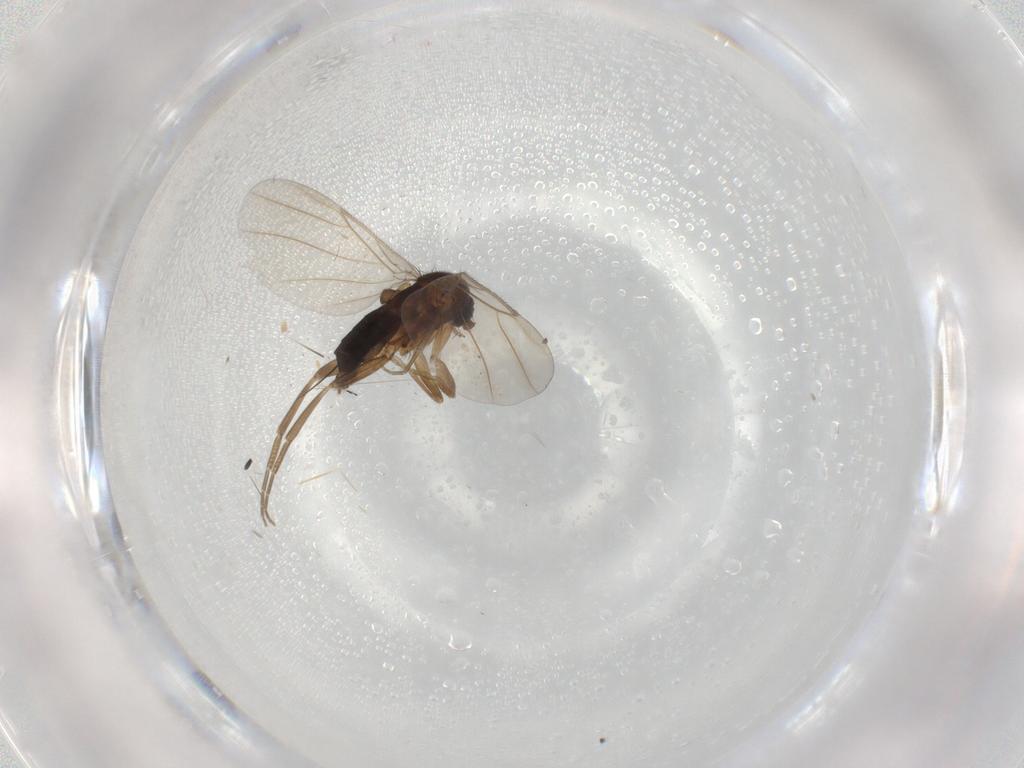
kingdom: Animalia
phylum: Arthropoda
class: Insecta
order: Diptera
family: Phoridae
